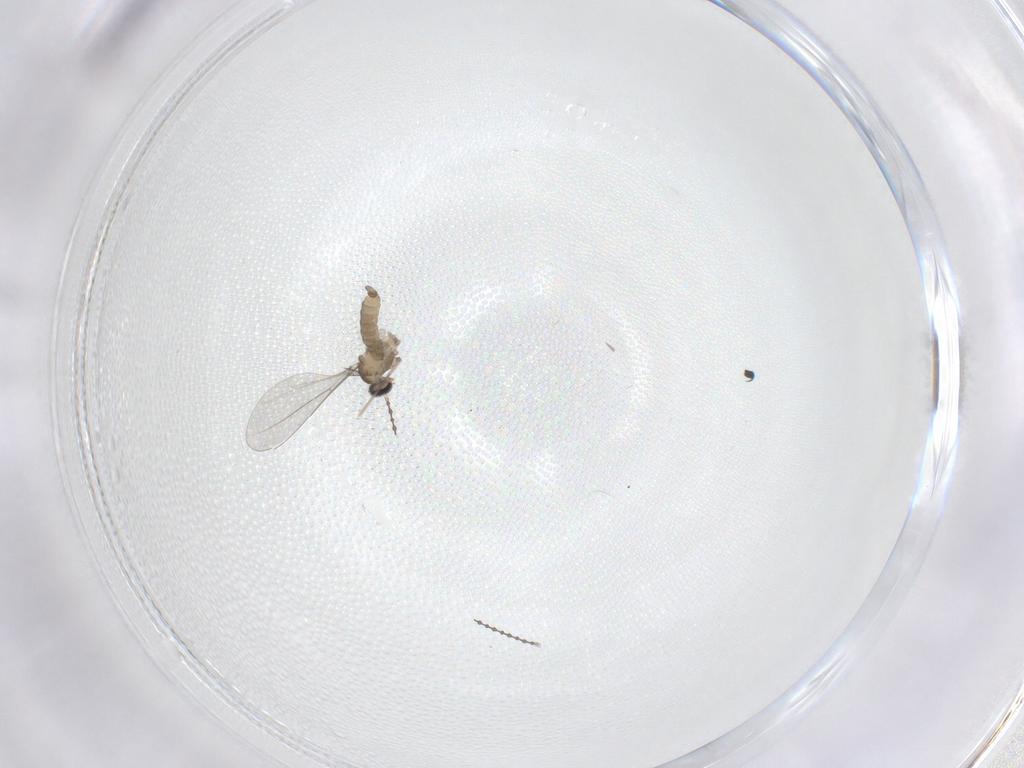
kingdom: Animalia
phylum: Arthropoda
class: Insecta
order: Diptera
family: Cecidomyiidae
